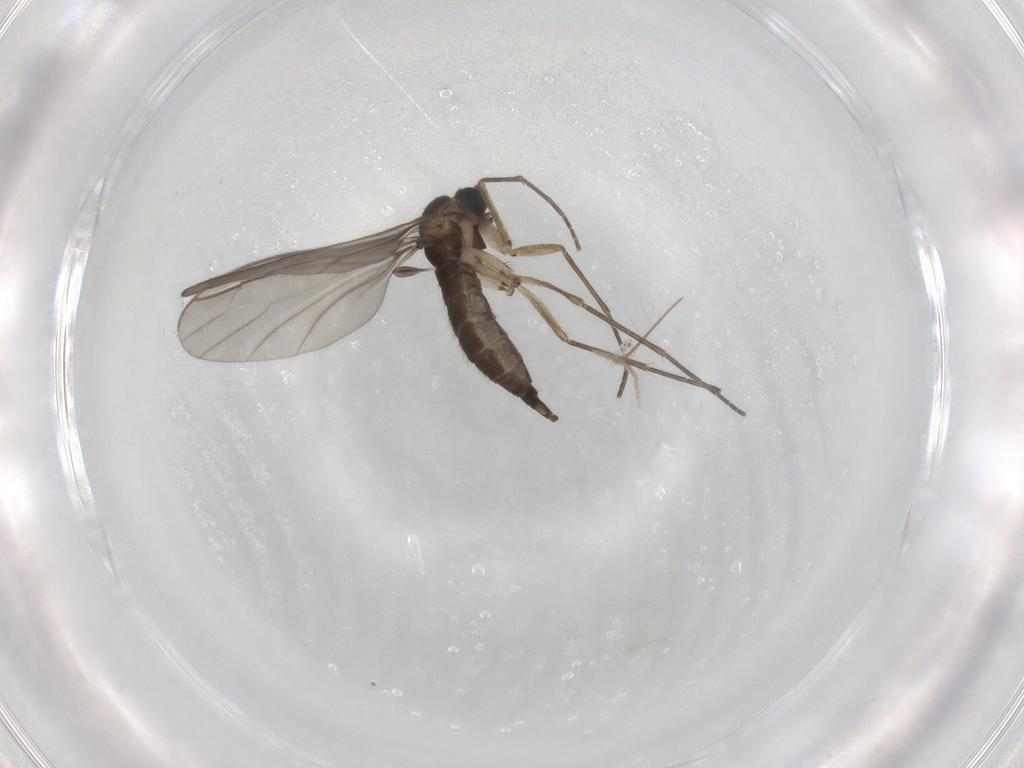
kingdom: Animalia
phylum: Arthropoda
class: Insecta
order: Diptera
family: Sciaridae
